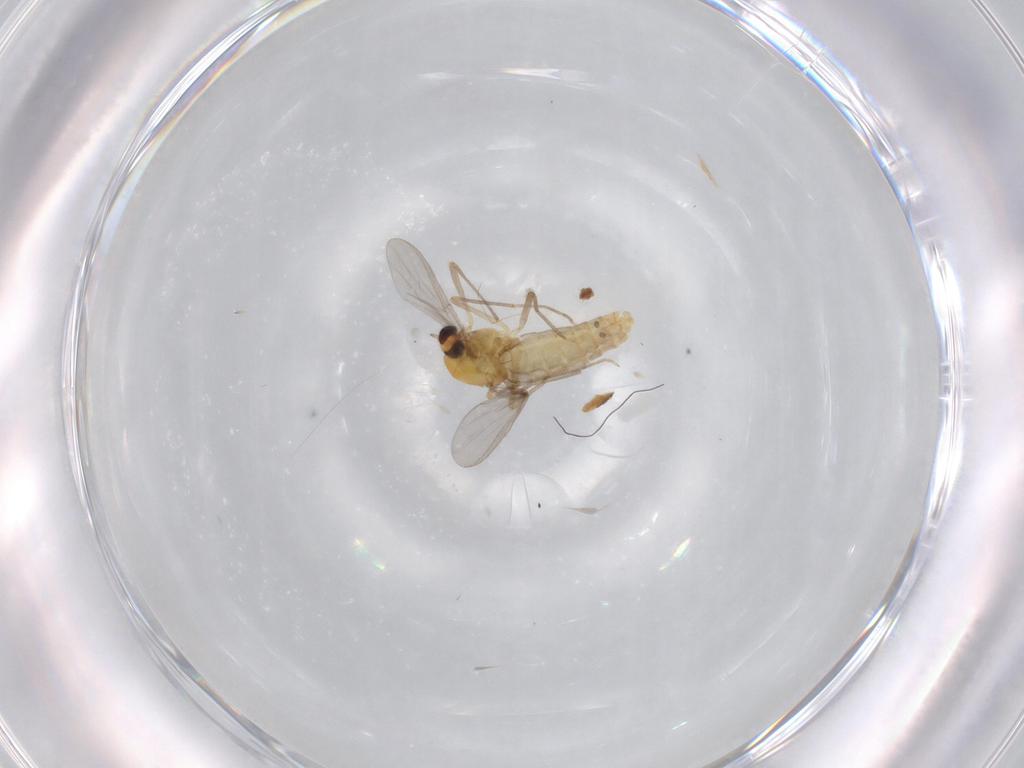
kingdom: Animalia
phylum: Arthropoda
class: Insecta
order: Diptera
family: Chironomidae
